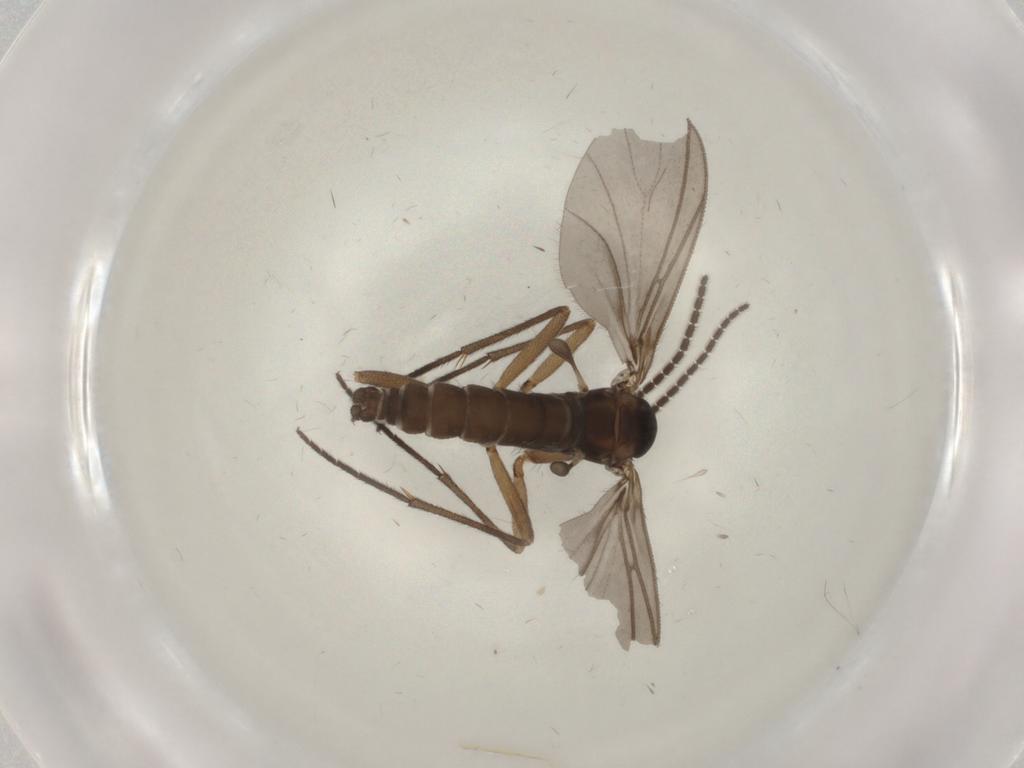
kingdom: Animalia
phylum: Arthropoda
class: Insecta
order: Diptera
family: Sciaridae
